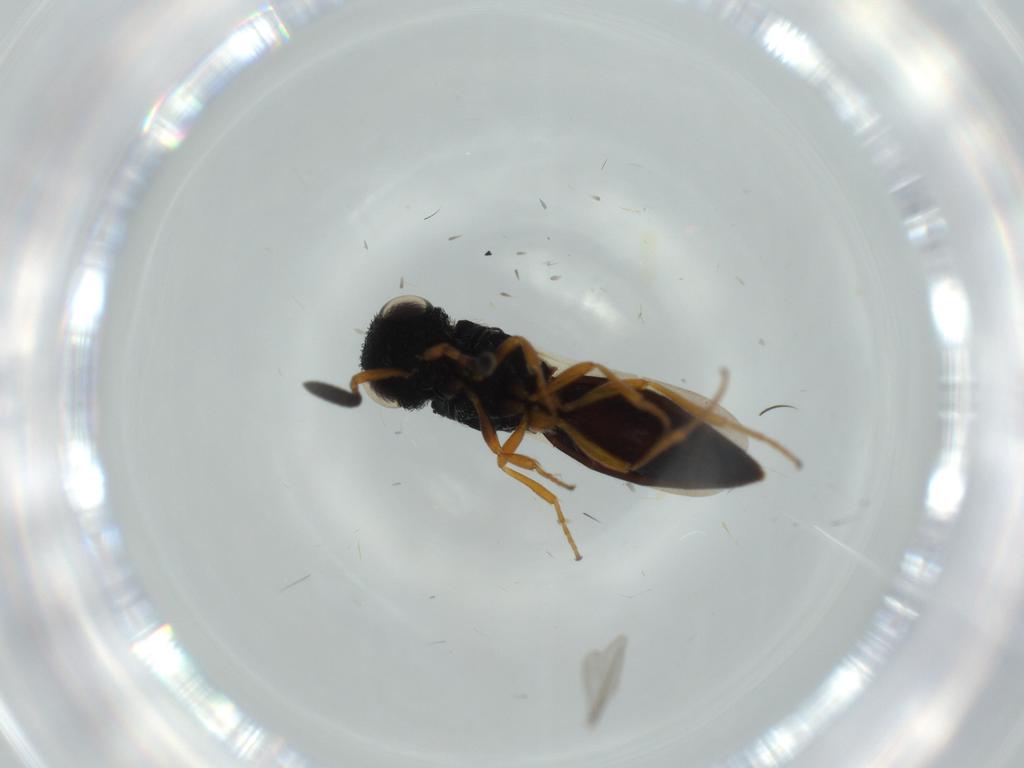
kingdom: Animalia
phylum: Arthropoda
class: Insecta
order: Hymenoptera
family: Scelionidae
